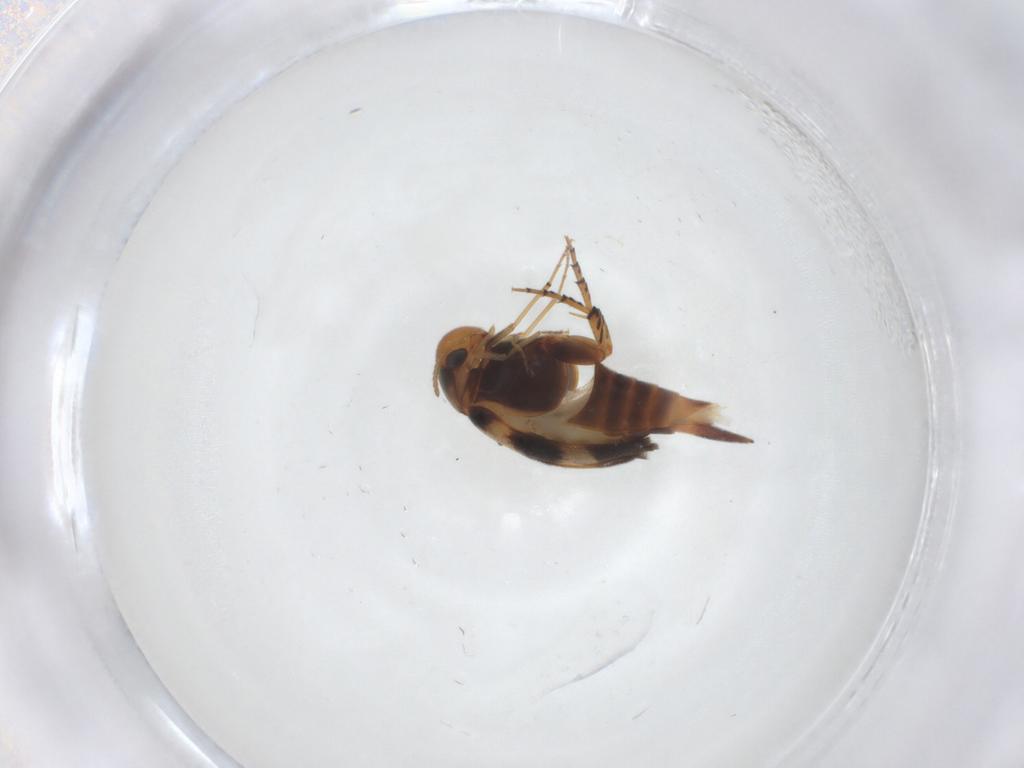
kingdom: Animalia
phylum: Arthropoda
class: Insecta
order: Coleoptera
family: Mordellidae
